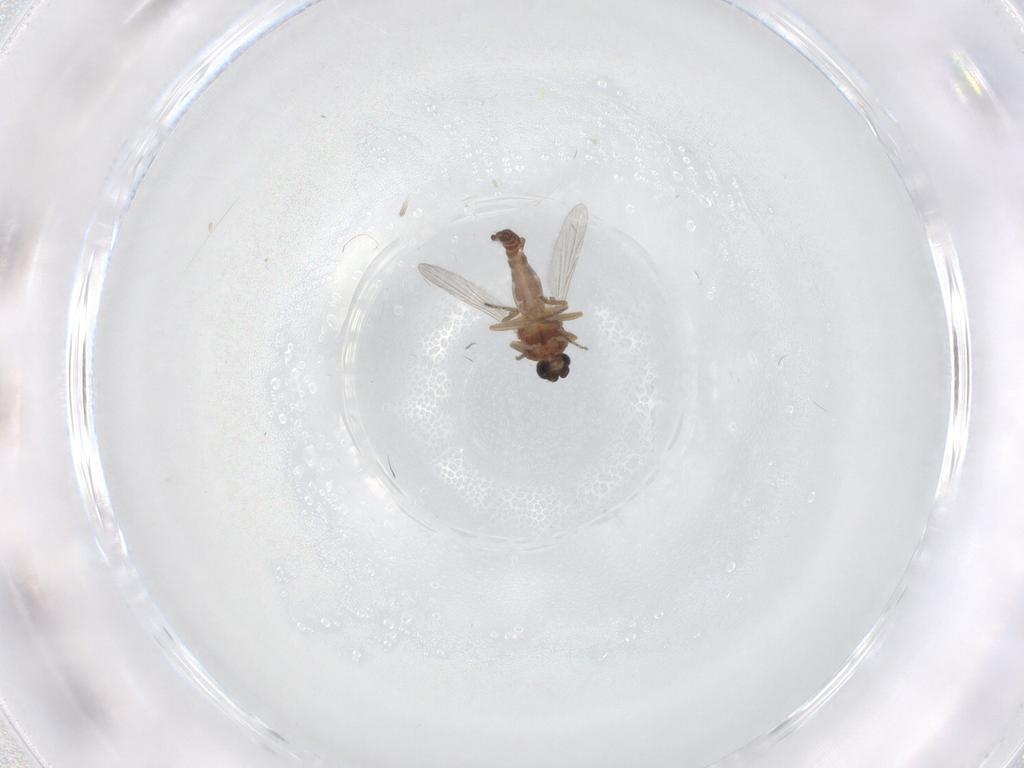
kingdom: Animalia
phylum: Arthropoda
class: Insecta
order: Diptera
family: Ceratopogonidae
